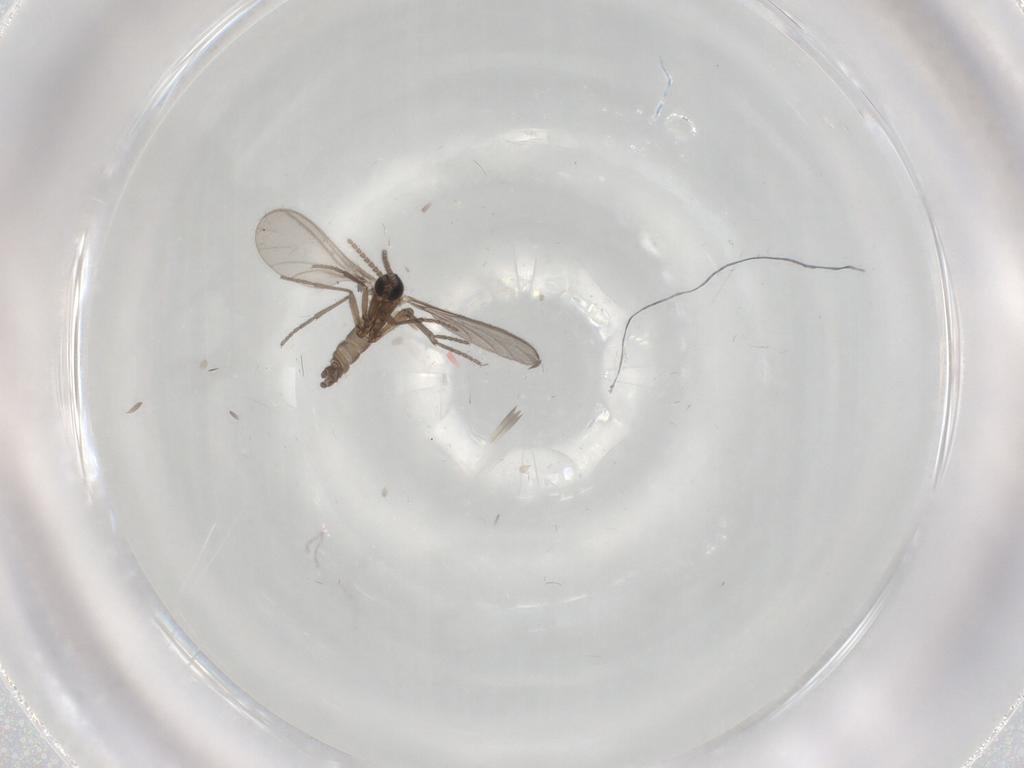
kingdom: Animalia
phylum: Arthropoda
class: Insecta
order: Diptera
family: Sciaridae
